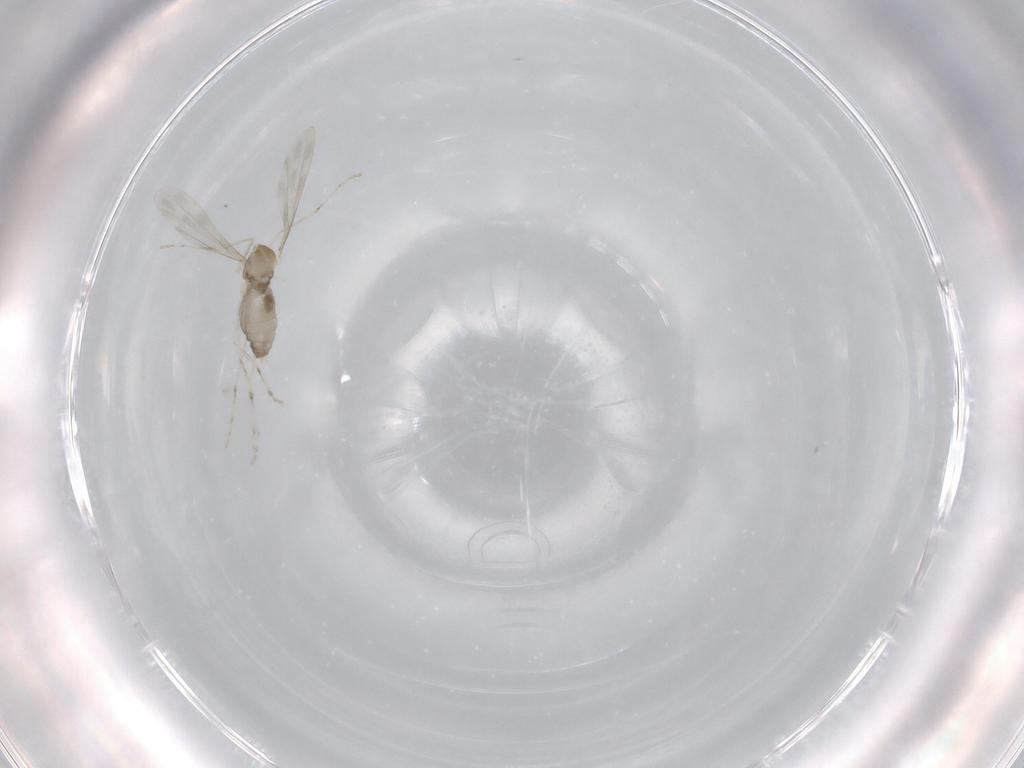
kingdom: Animalia
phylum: Arthropoda
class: Insecta
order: Diptera
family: Cecidomyiidae
